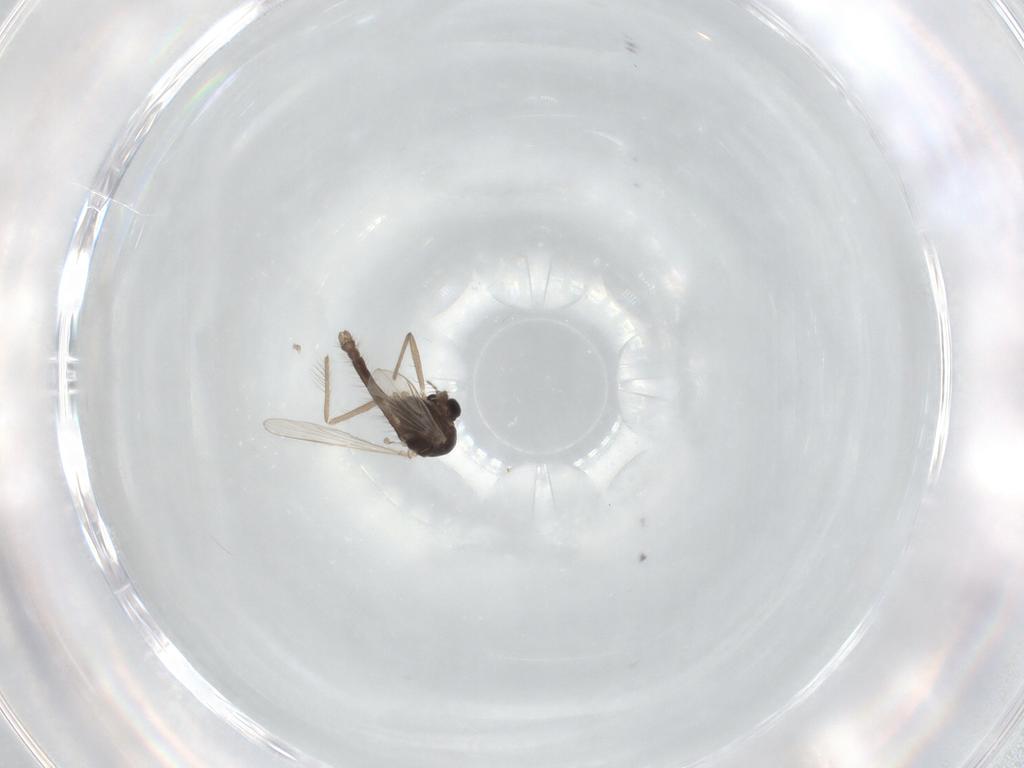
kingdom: Animalia
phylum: Arthropoda
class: Insecta
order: Diptera
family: Chironomidae
